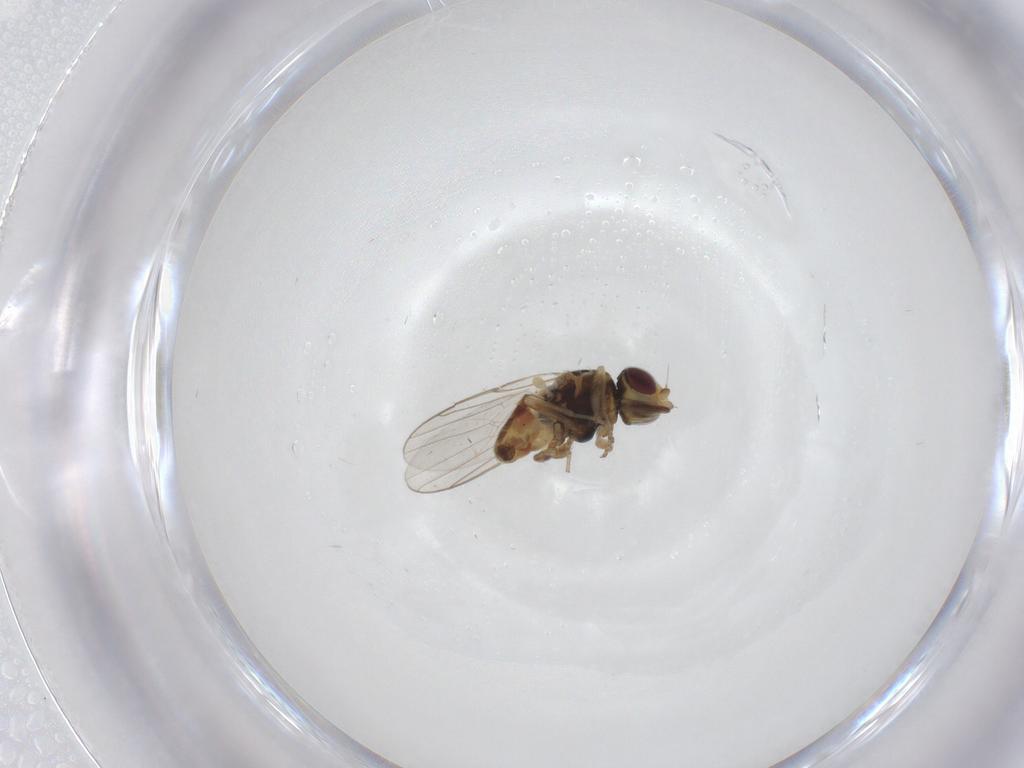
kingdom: Animalia
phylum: Arthropoda
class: Insecta
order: Diptera
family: Chloropidae
